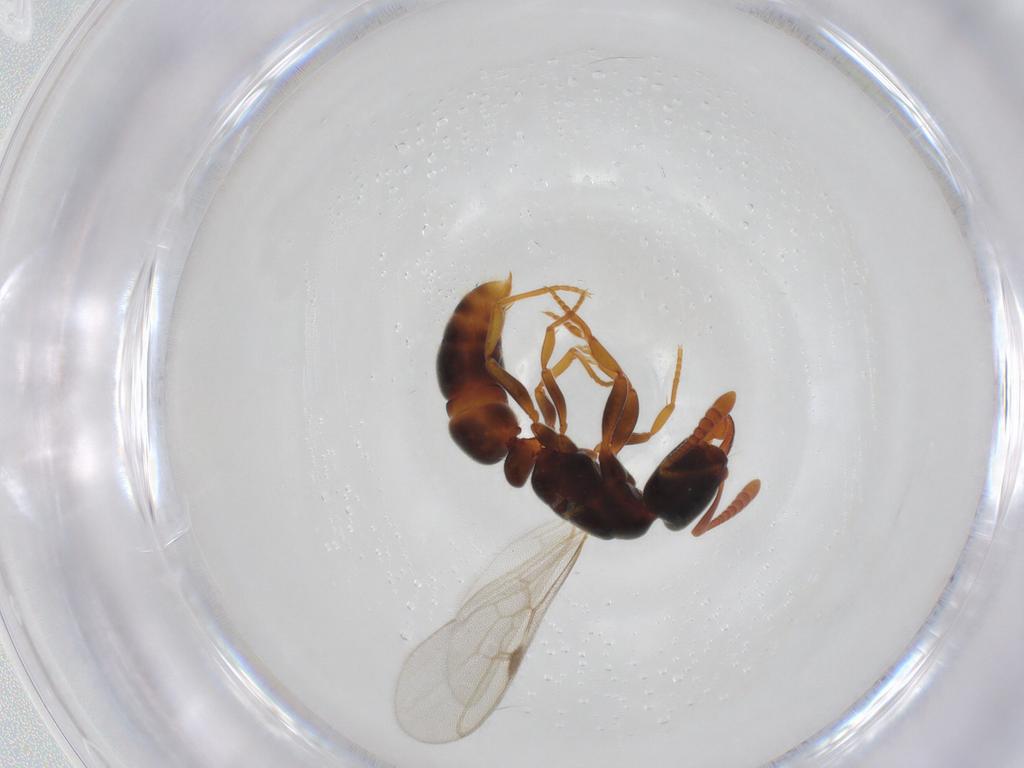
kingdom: Animalia
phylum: Arthropoda
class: Insecta
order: Hymenoptera
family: Formicidae
